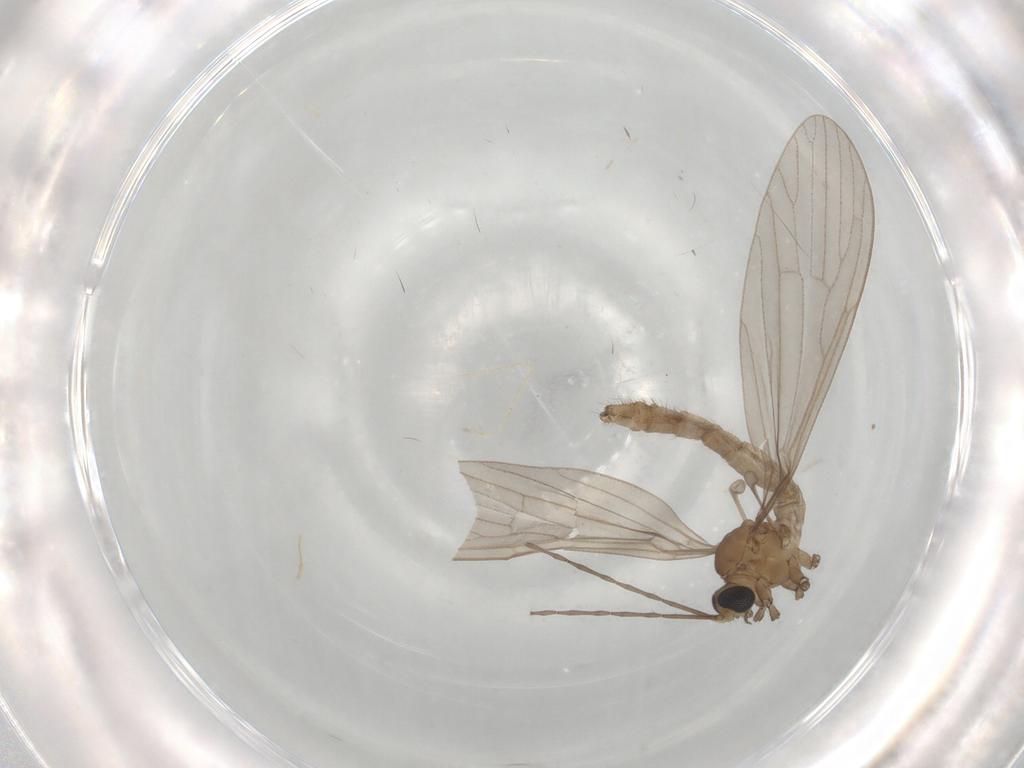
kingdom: Animalia
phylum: Arthropoda
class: Insecta
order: Diptera
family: Limoniidae
